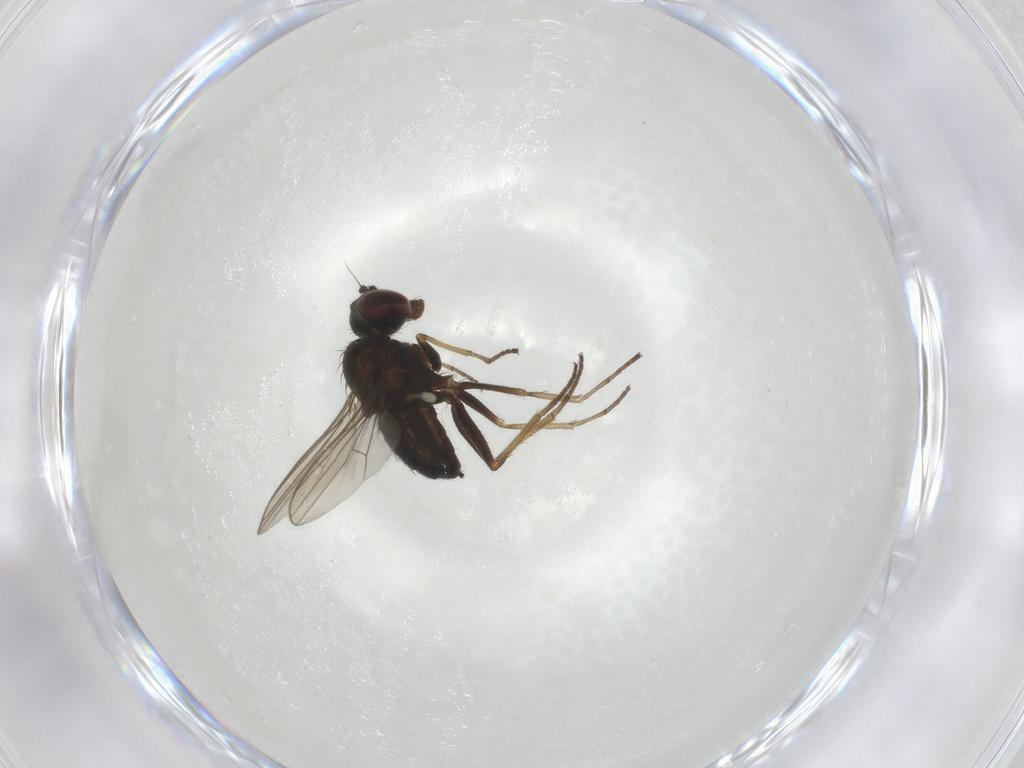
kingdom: Animalia
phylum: Arthropoda
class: Insecta
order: Diptera
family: Dolichopodidae
